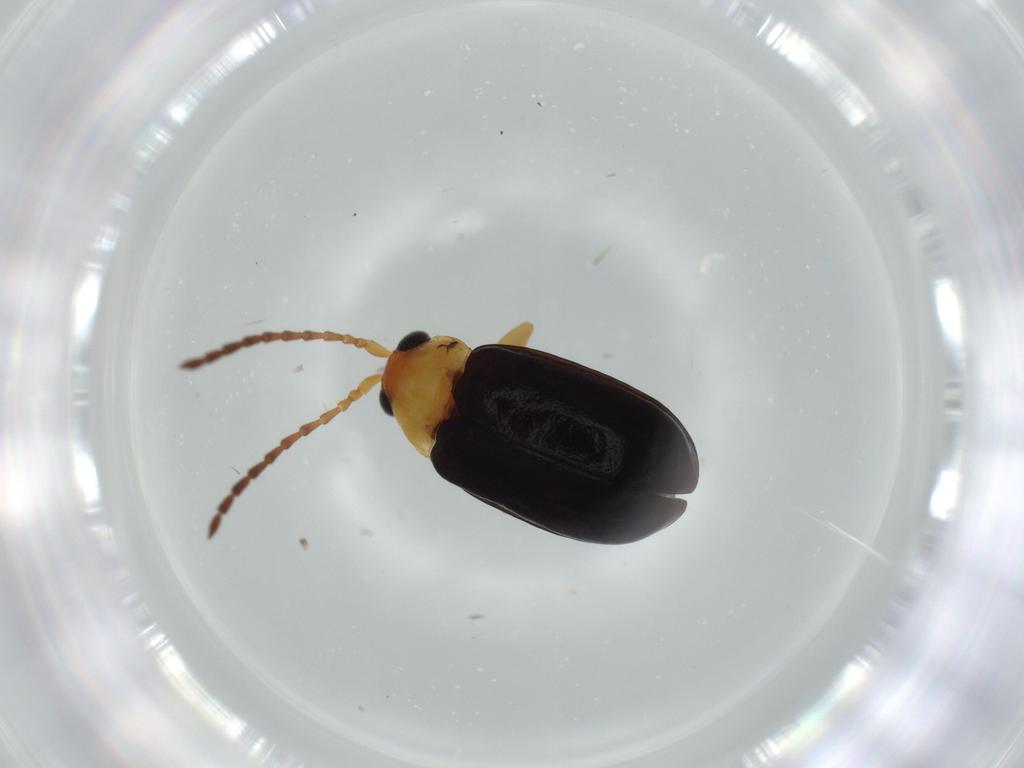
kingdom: Animalia
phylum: Arthropoda
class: Insecta
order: Coleoptera
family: Chrysomelidae
